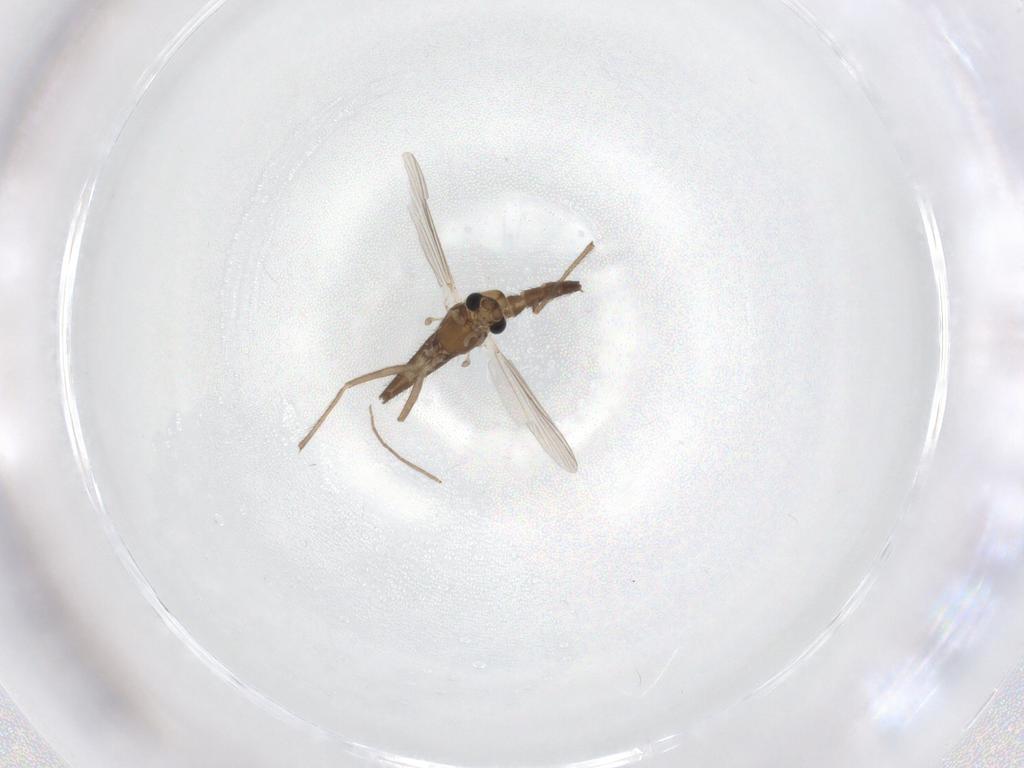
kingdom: Animalia
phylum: Arthropoda
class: Insecta
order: Diptera
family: Chironomidae
